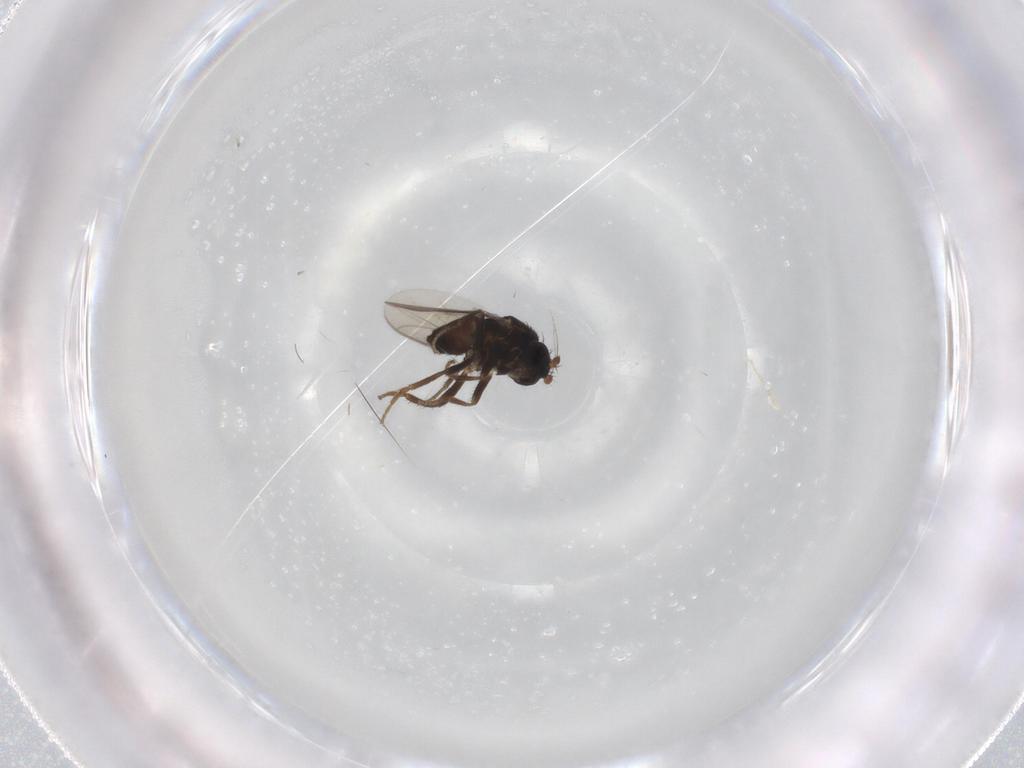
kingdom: Animalia
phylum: Arthropoda
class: Insecta
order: Diptera
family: Sphaeroceridae
